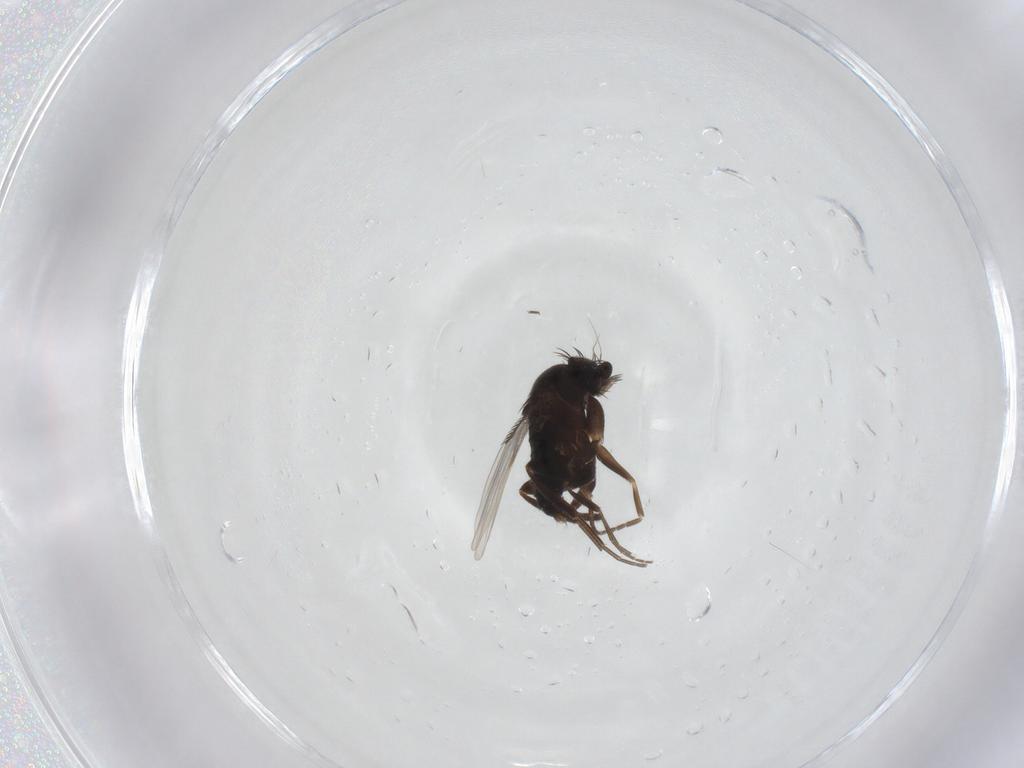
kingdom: Animalia
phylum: Arthropoda
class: Insecta
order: Diptera
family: Phoridae
